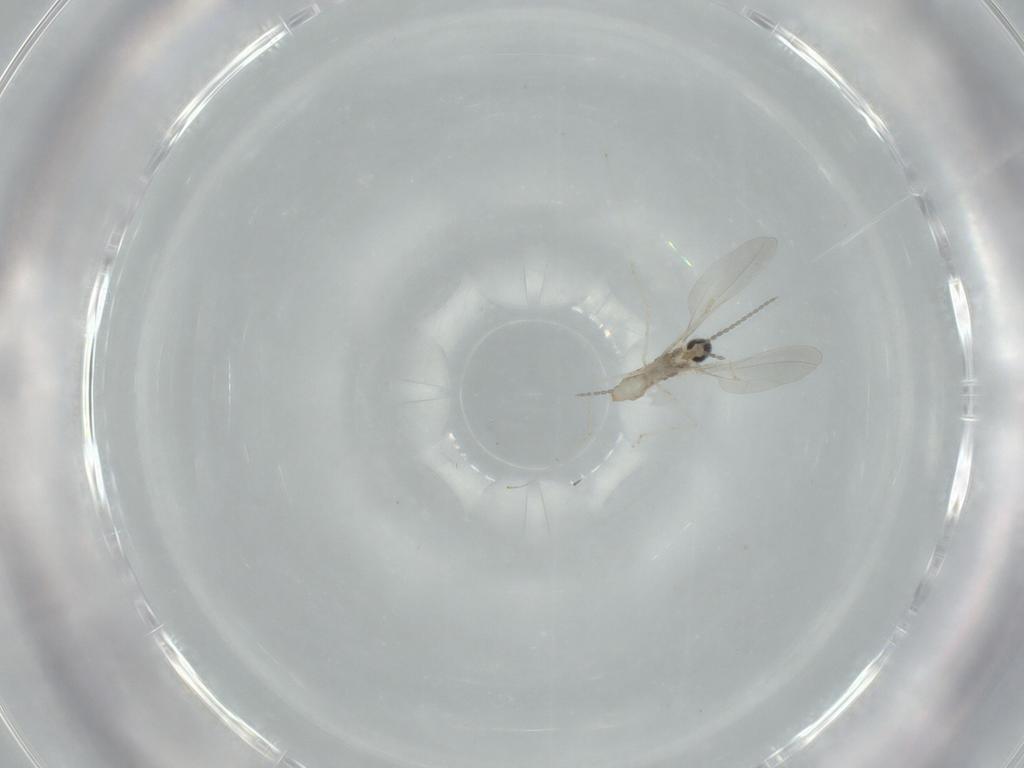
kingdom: Animalia
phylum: Arthropoda
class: Insecta
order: Diptera
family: Cecidomyiidae
